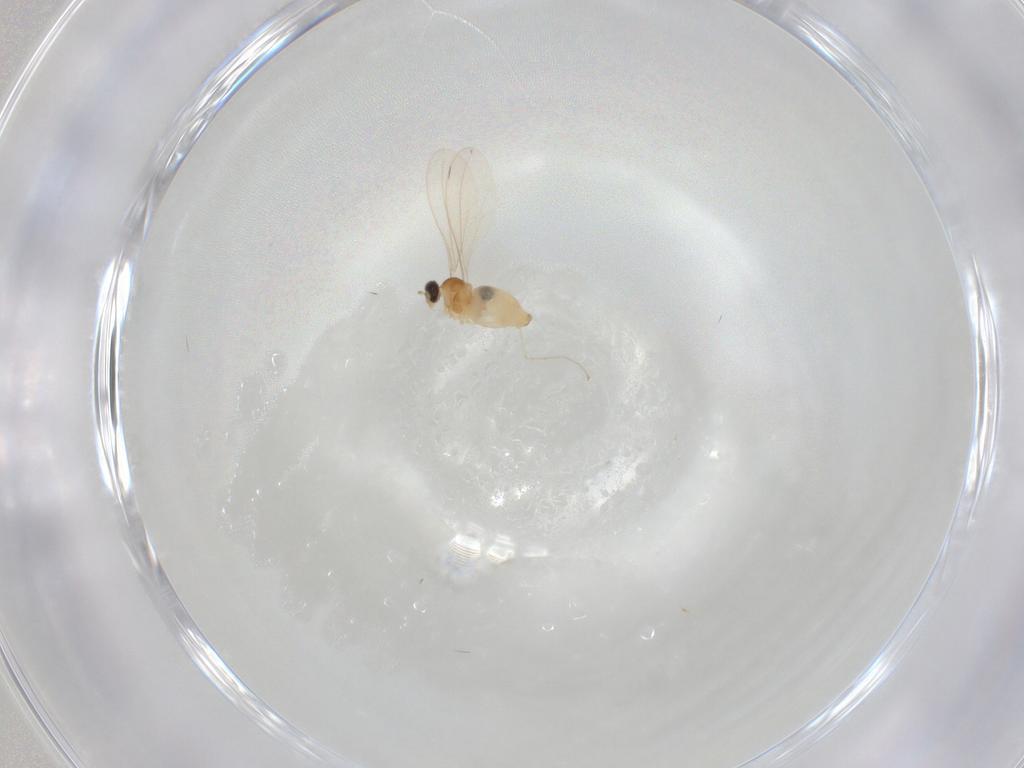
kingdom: Animalia
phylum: Arthropoda
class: Insecta
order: Diptera
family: Cecidomyiidae
